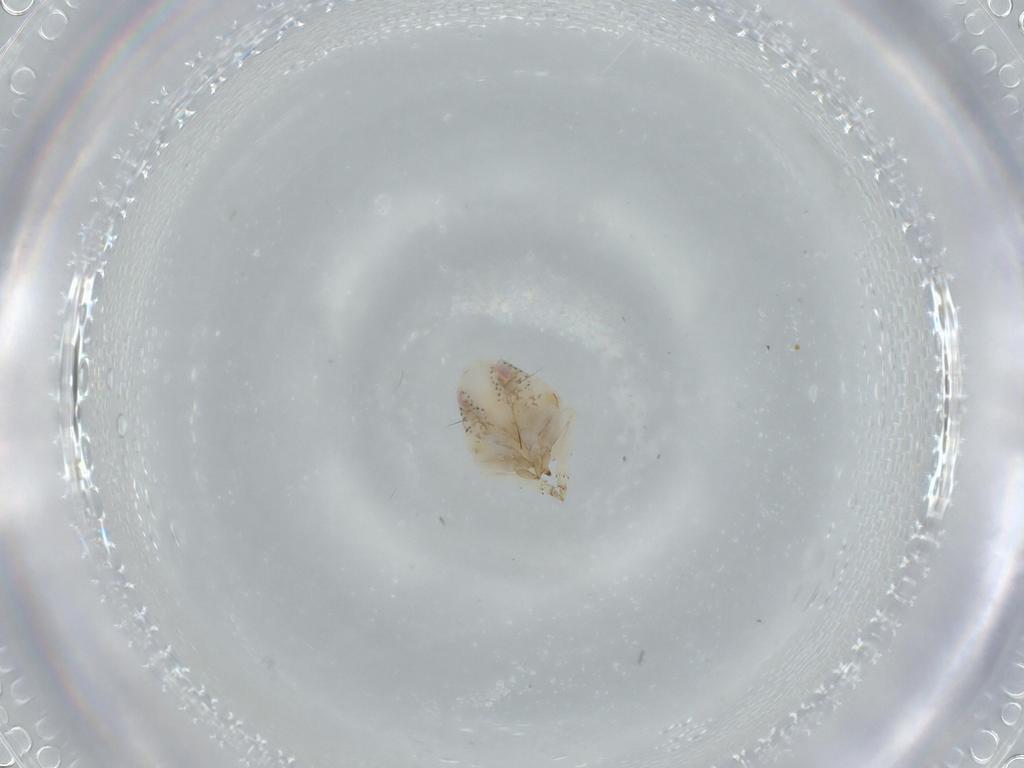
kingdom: Animalia
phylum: Arthropoda
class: Insecta
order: Hemiptera
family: Acanaloniidae
